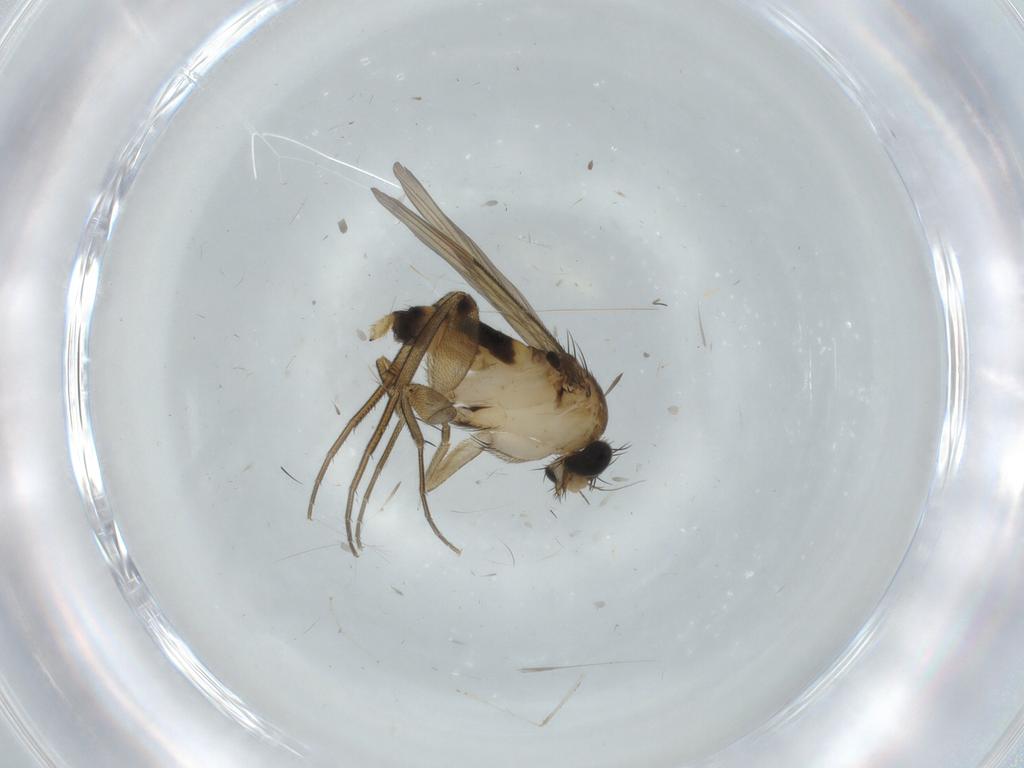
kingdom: Animalia
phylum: Arthropoda
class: Insecta
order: Diptera
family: Phoridae
